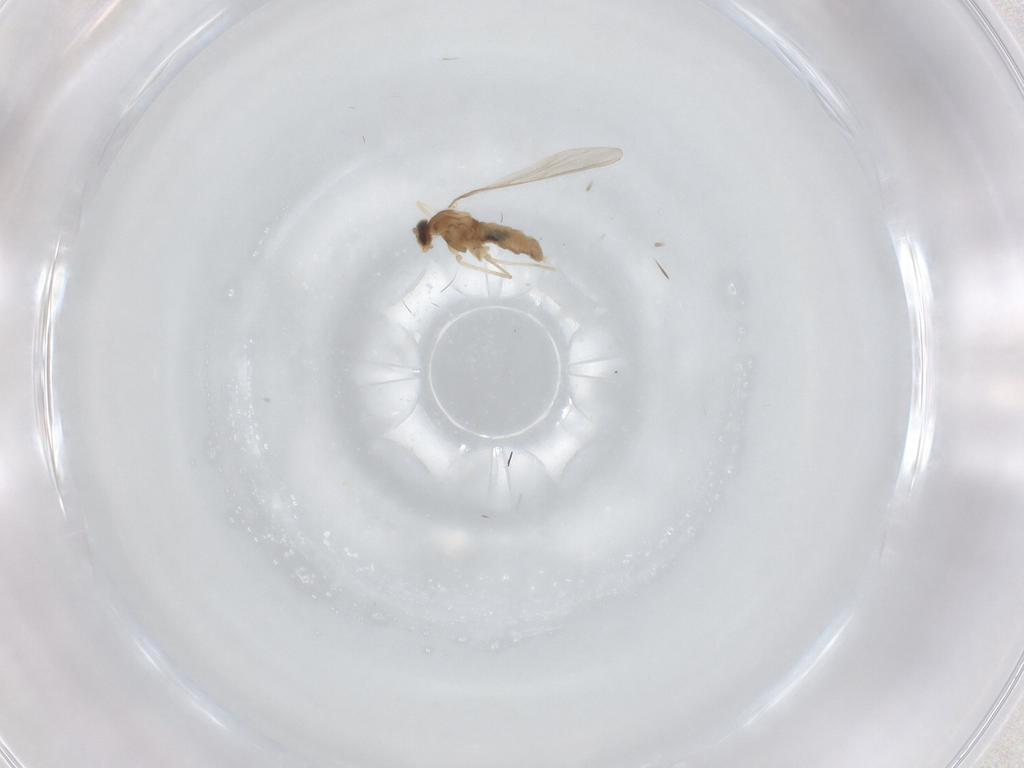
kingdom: Animalia
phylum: Arthropoda
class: Insecta
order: Diptera
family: Cecidomyiidae
